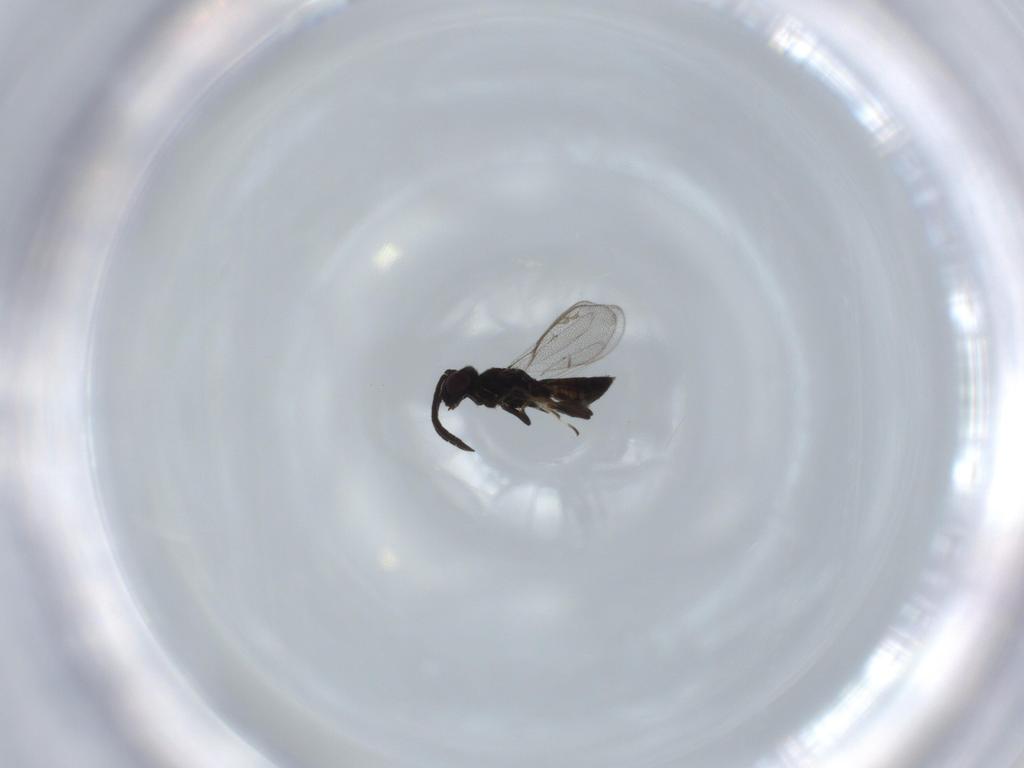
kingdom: Animalia
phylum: Arthropoda
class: Insecta
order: Hymenoptera
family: Eupelmidae
